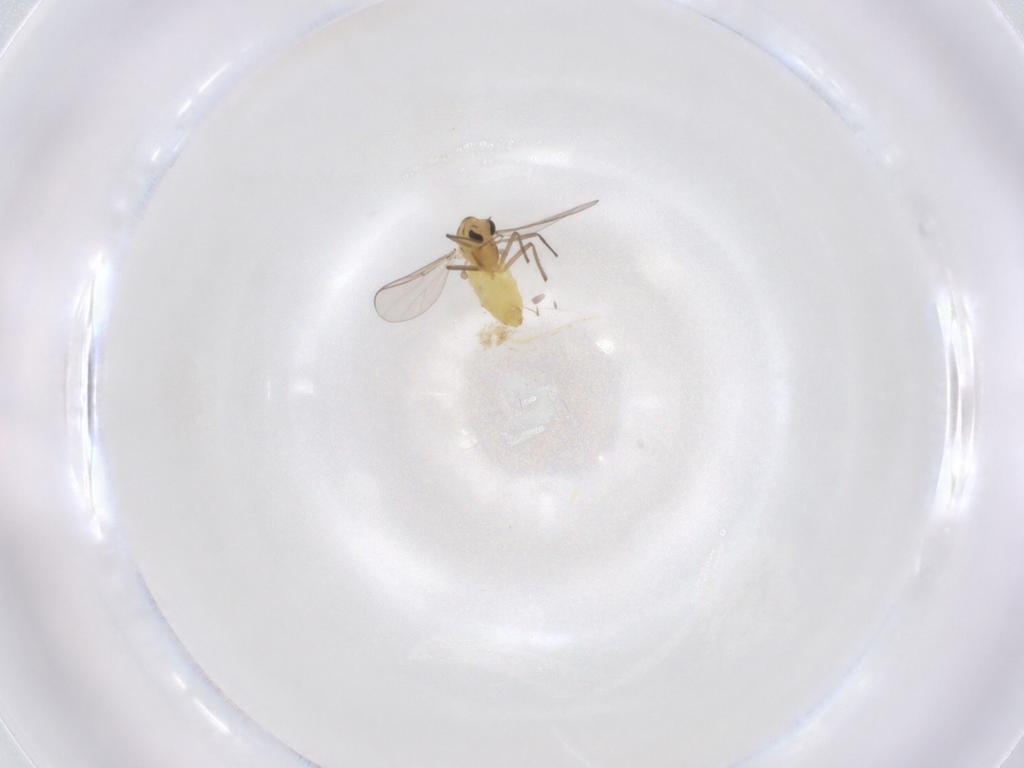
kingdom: Animalia
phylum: Arthropoda
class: Insecta
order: Diptera
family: Chironomidae
